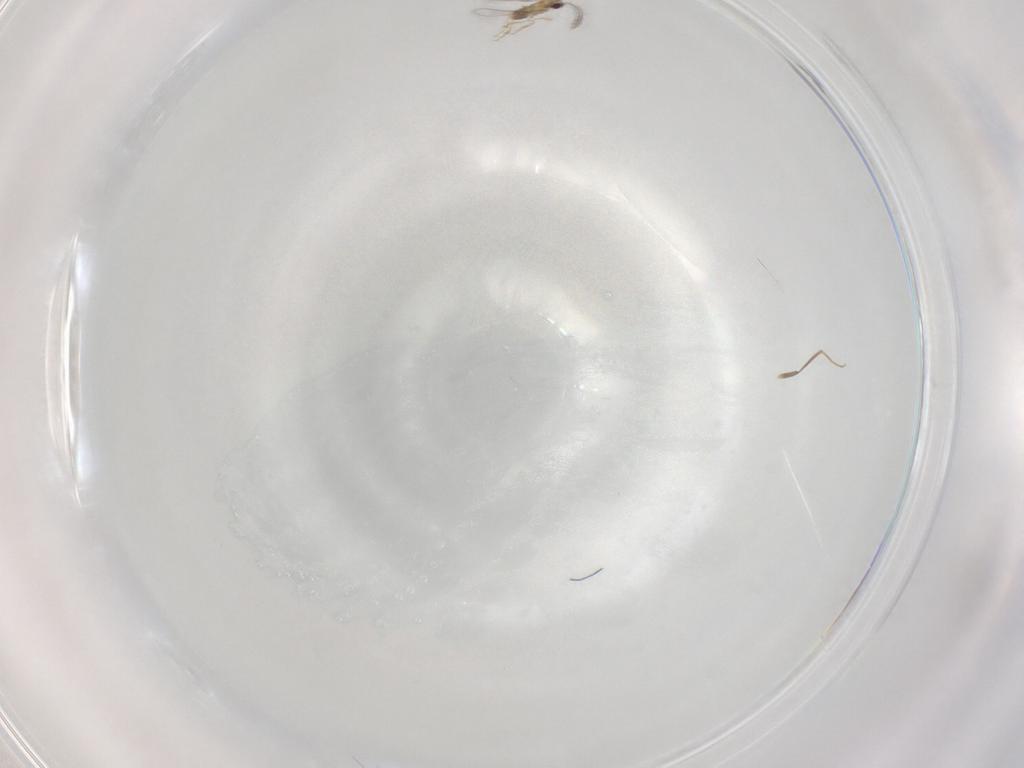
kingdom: Animalia
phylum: Arthropoda
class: Insecta
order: Hymenoptera
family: Mymaridae
